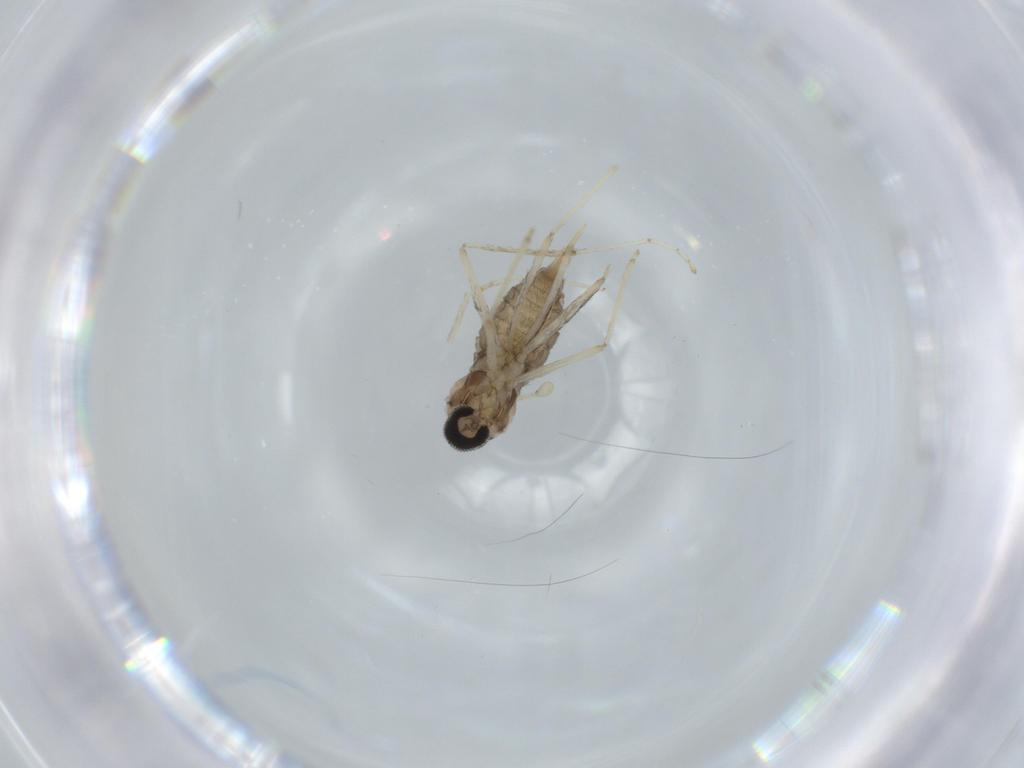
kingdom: Animalia
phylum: Arthropoda
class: Insecta
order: Diptera
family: Cecidomyiidae
